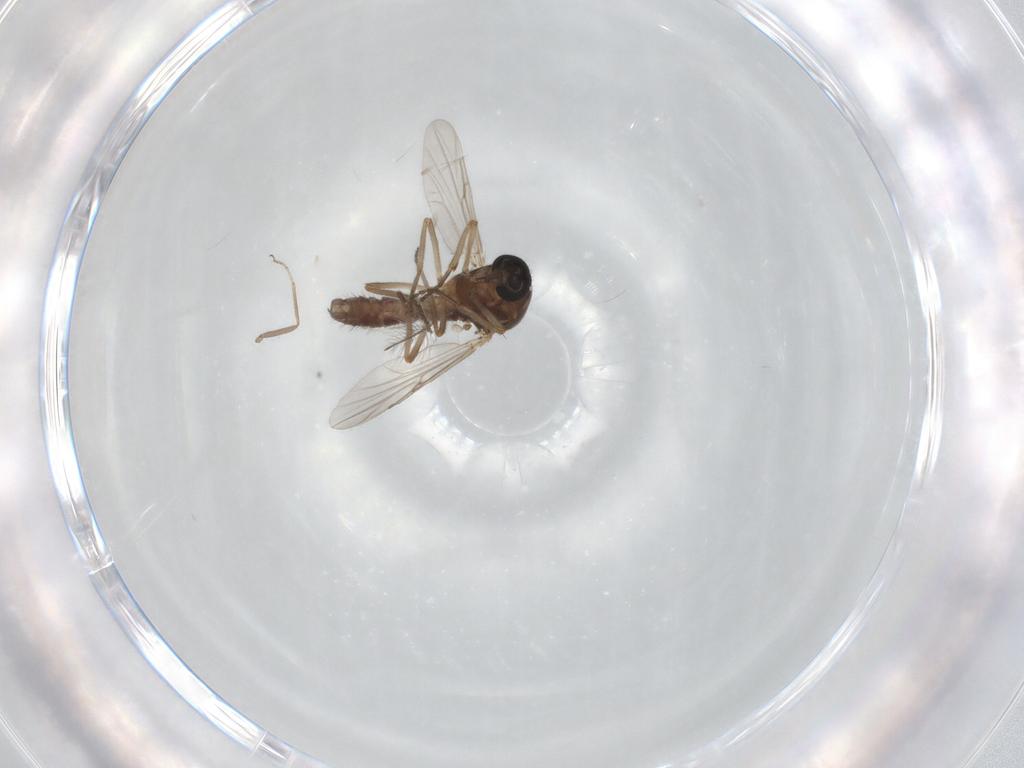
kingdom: Animalia
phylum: Arthropoda
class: Insecta
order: Diptera
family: Ceratopogonidae
